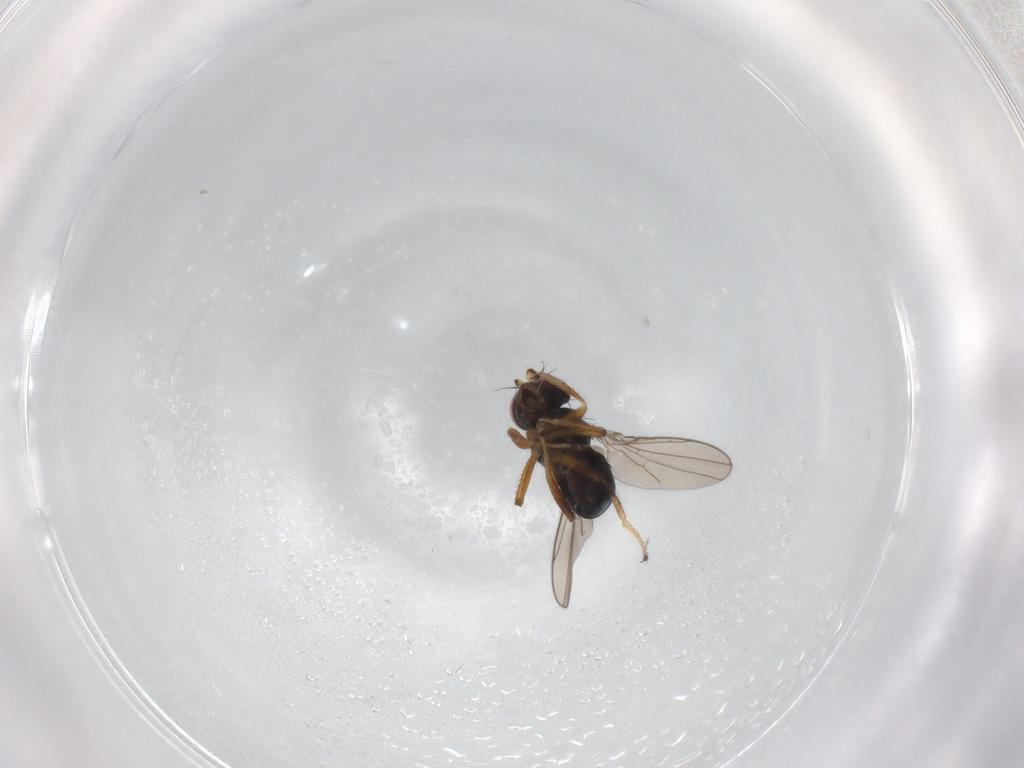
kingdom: Animalia
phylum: Arthropoda
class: Insecta
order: Diptera
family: Ephydridae
